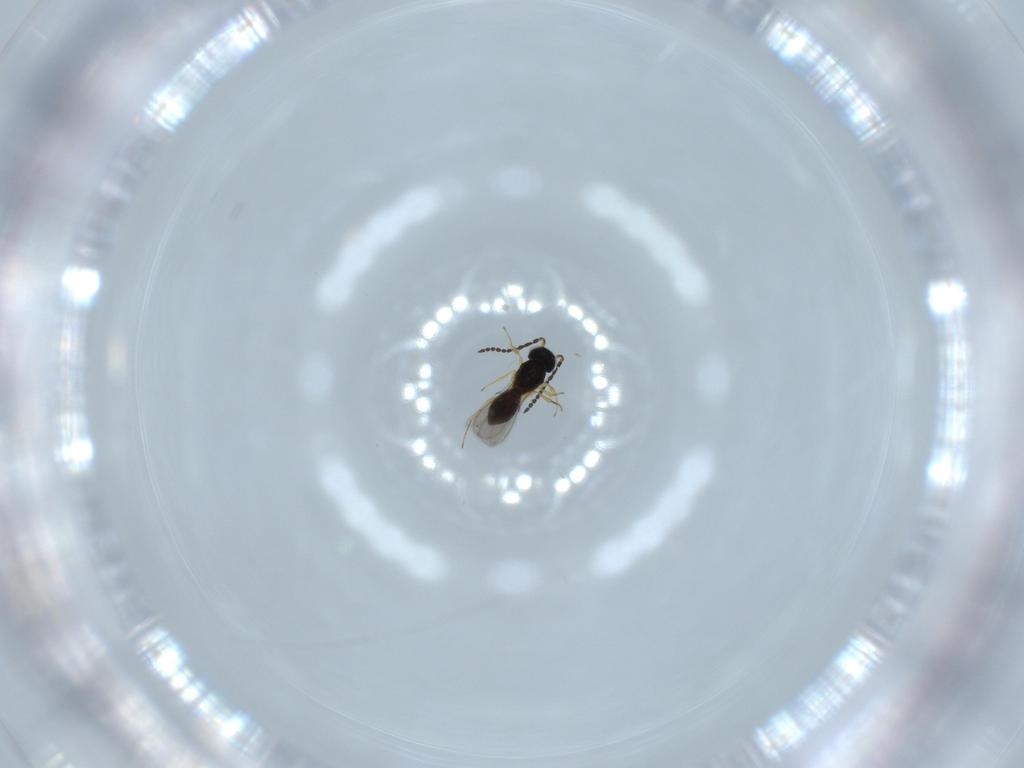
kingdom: Animalia
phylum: Arthropoda
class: Insecta
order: Hymenoptera
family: Scelionidae
